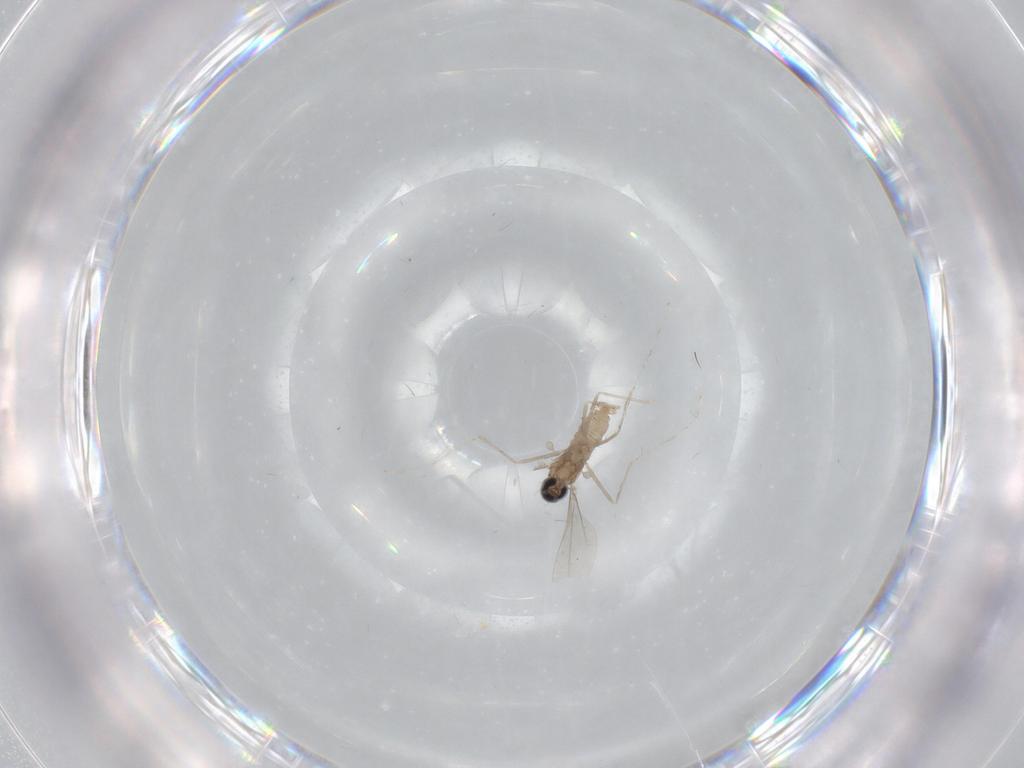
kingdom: Animalia
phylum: Arthropoda
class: Insecta
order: Diptera
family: Cecidomyiidae
